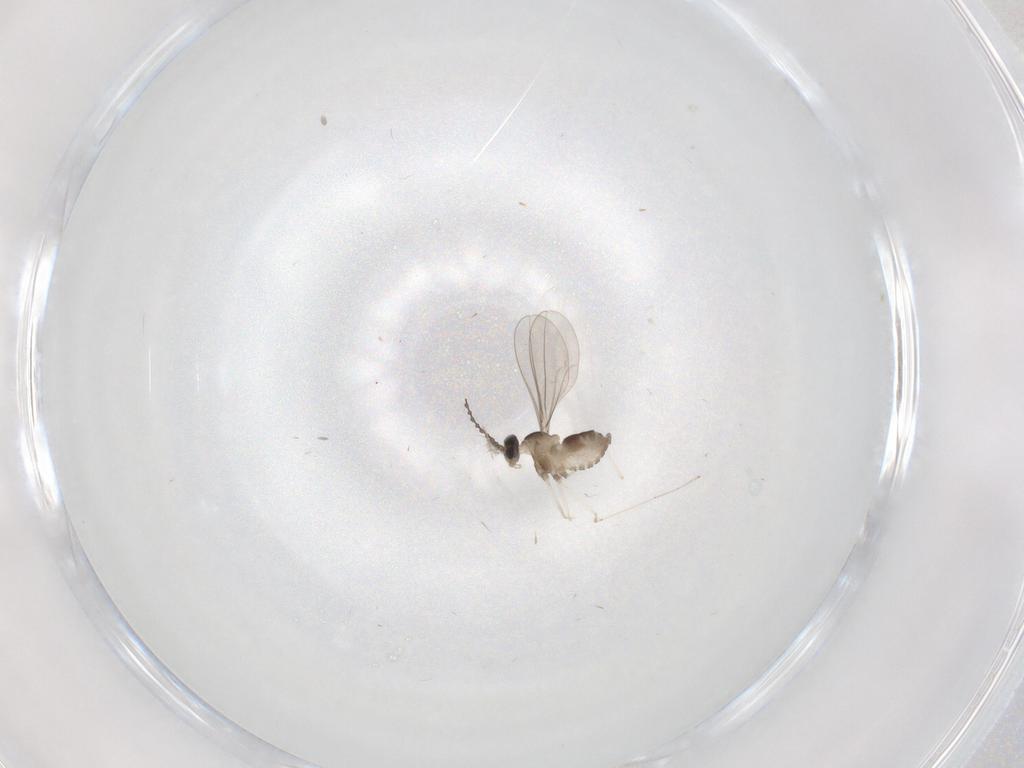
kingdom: Animalia
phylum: Arthropoda
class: Insecta
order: Diptera
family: Cecidomyiidae
